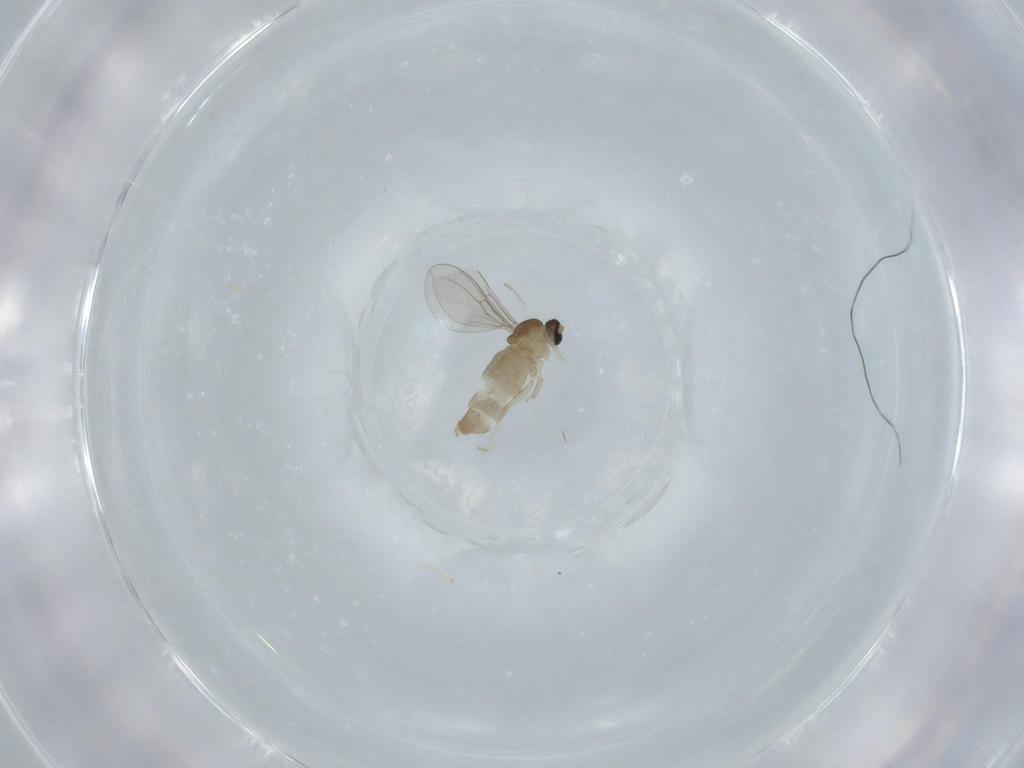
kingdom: Animalia
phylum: Arthropoda
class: Insecta
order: Diptera
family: Cecidomyiidae
